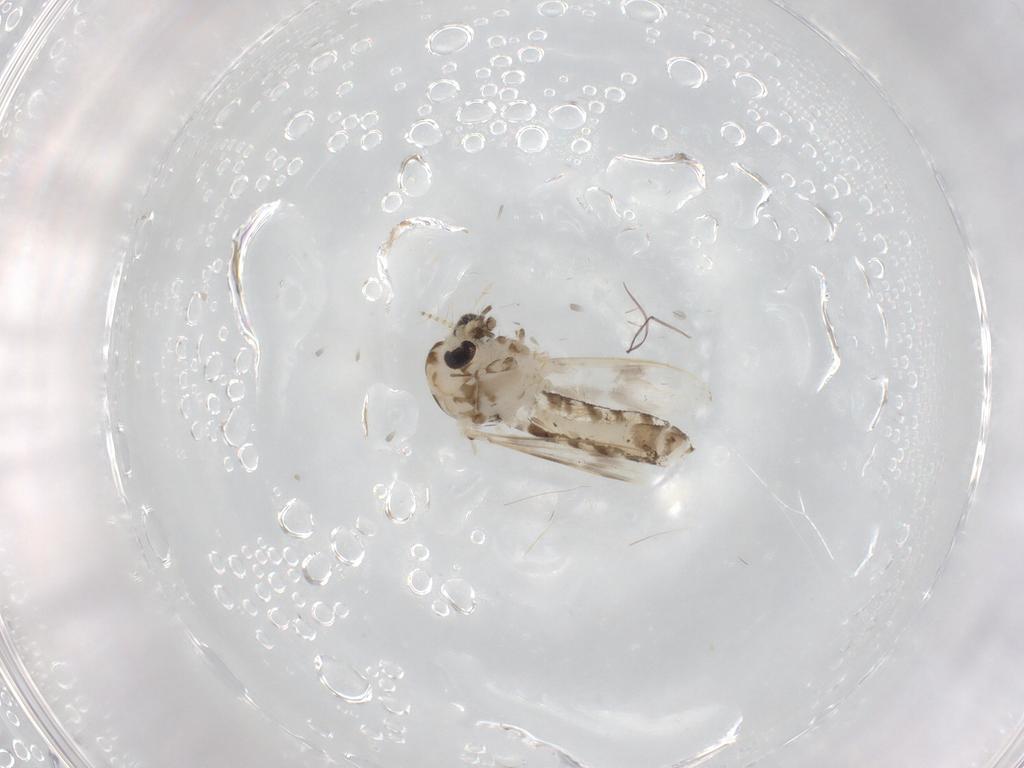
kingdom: Animalia
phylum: Arthropoda
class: Insecta
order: Diptera
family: Corethrellidae
